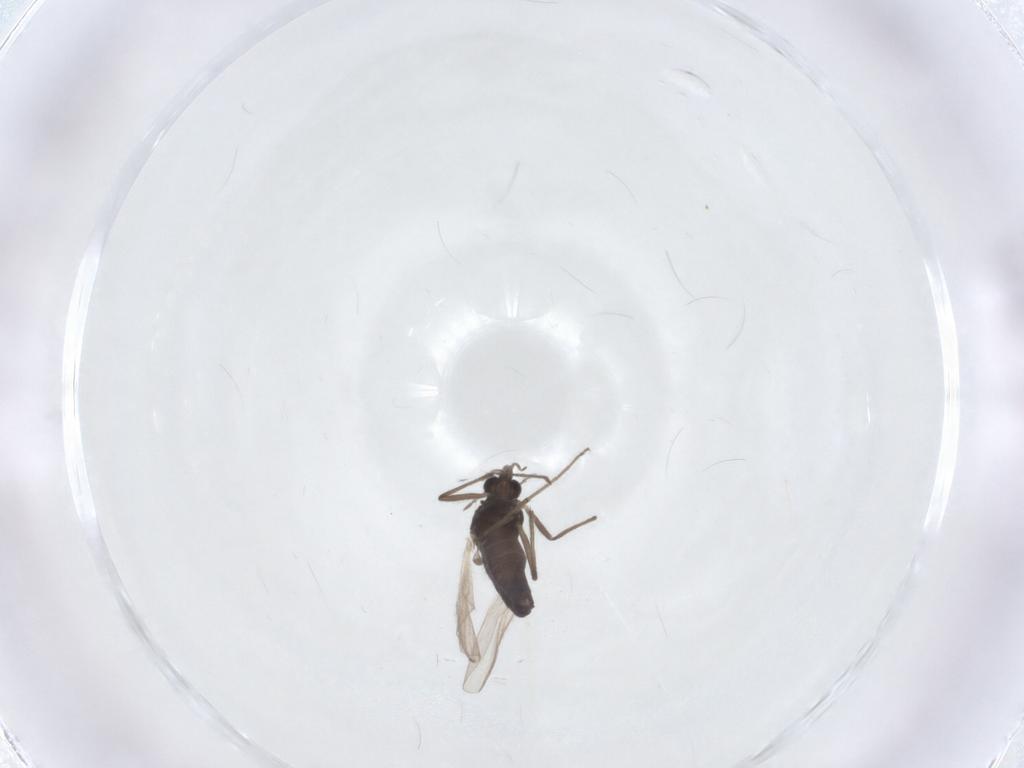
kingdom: Animalia
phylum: Arthropoda
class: Insecta
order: Diptera
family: Chironomidae
